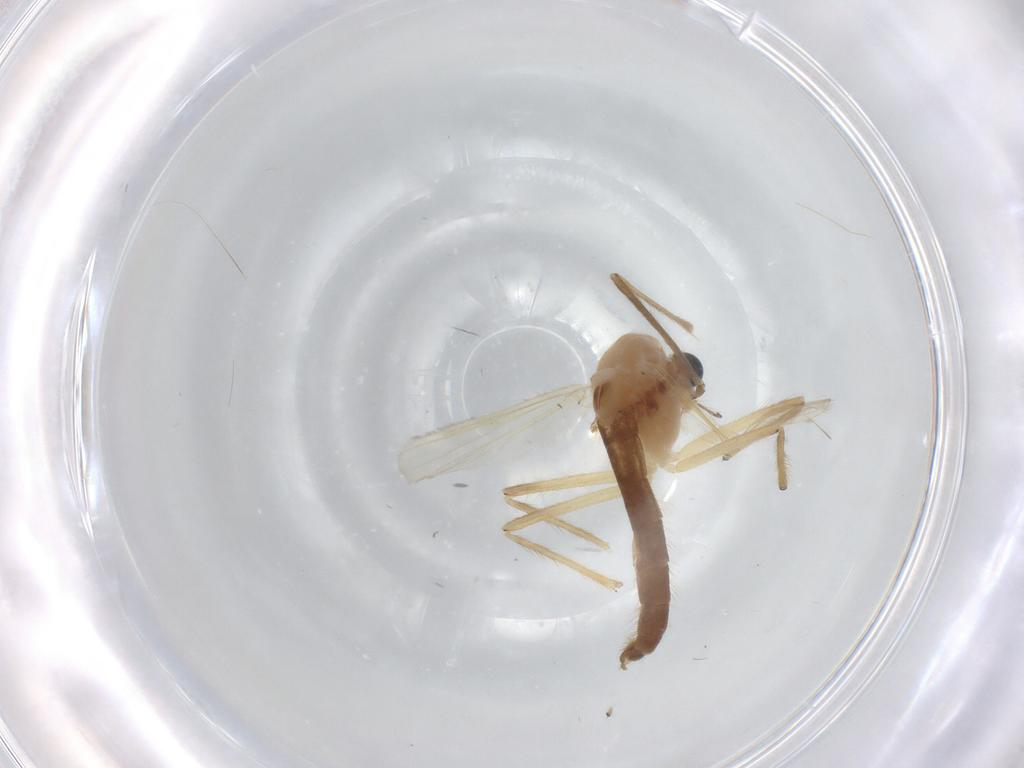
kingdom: Animalia
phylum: Arthropoda
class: Insecta
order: Diptera
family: Chironomidae
